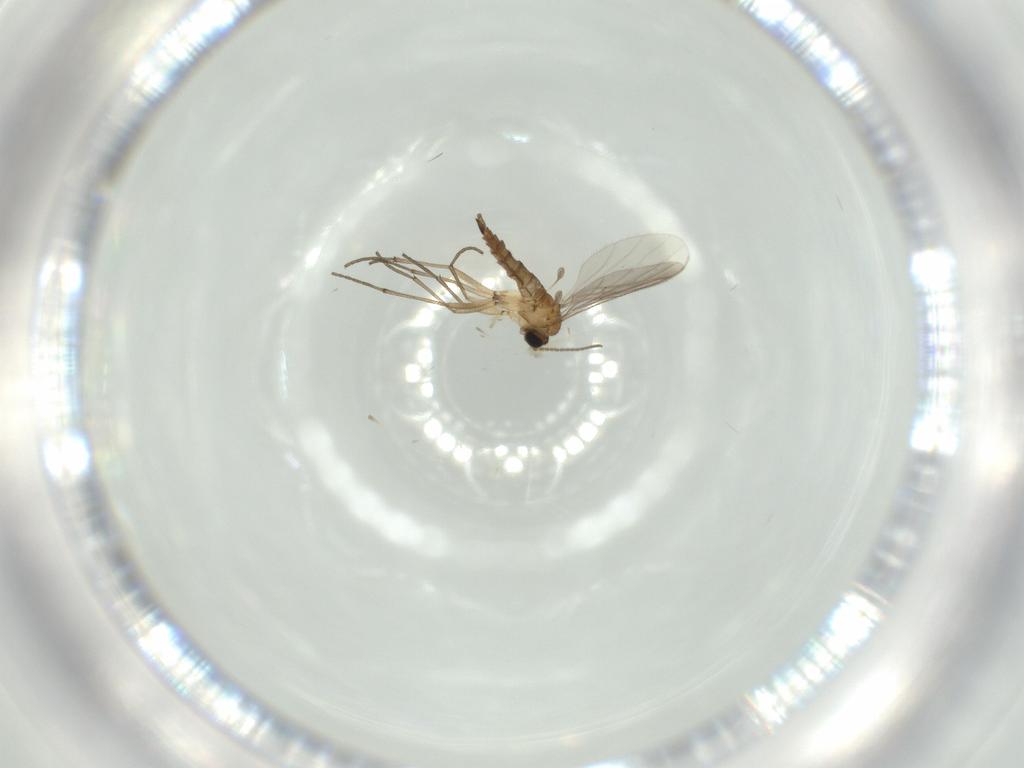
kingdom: Animalia
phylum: Arthropoda
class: Insecta
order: Diptera
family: Sciaridae
